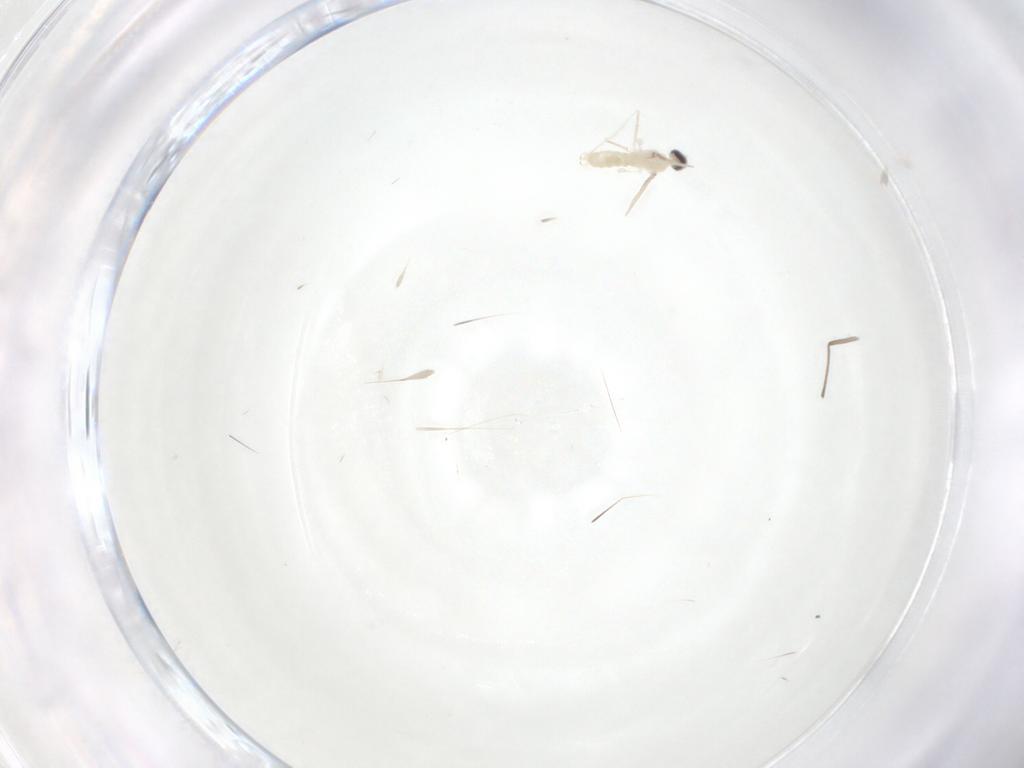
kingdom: Animalia
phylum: Arthropoda
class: Insecta
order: Diptera
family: Cecidomyiidae
